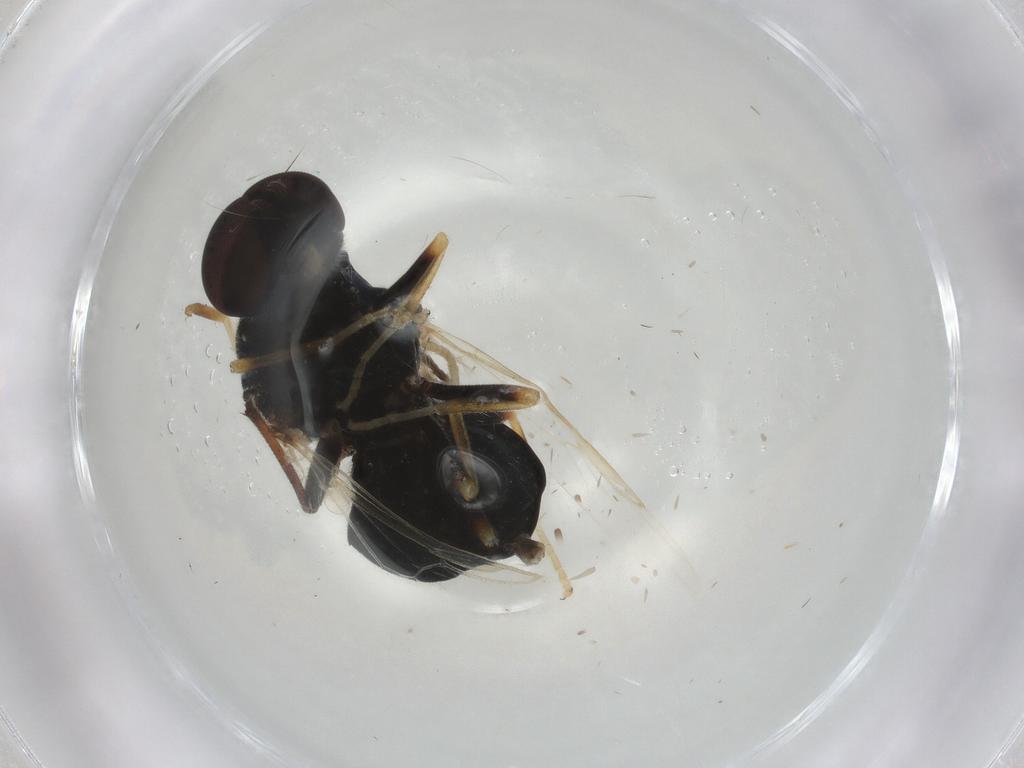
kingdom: Animalia
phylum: Arthropoda
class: Insecta
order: Diptera
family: Stratiomyidae
